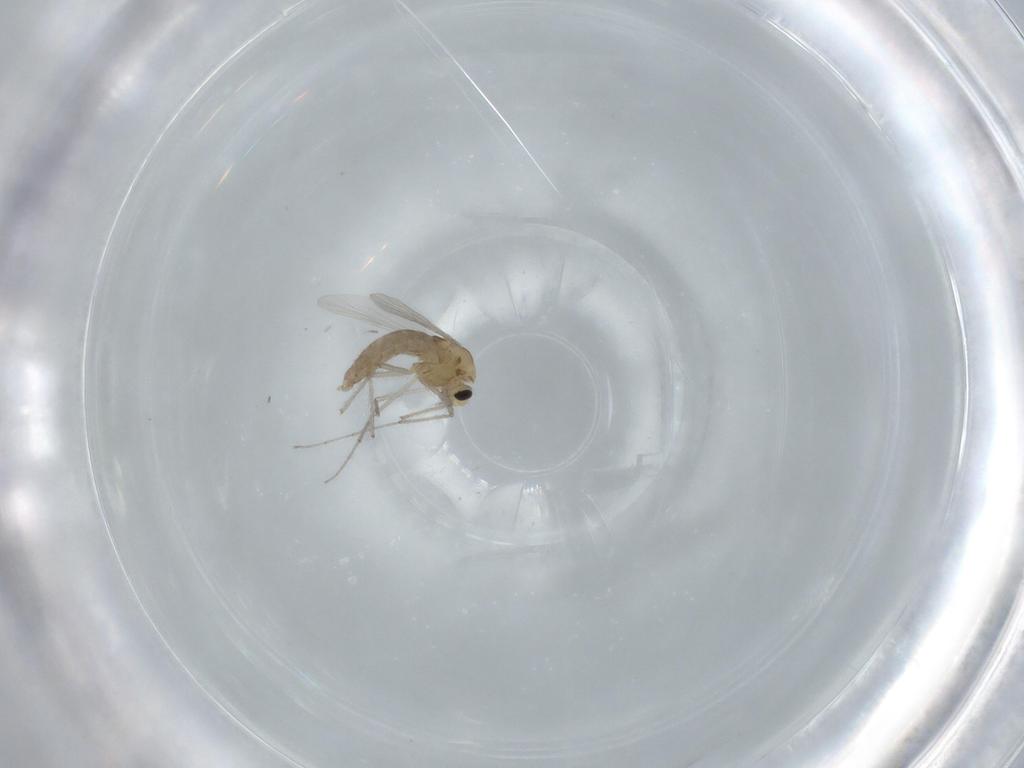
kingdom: Animalia
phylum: Arthropoda
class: Insecta
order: Diptera
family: Chironomidae
